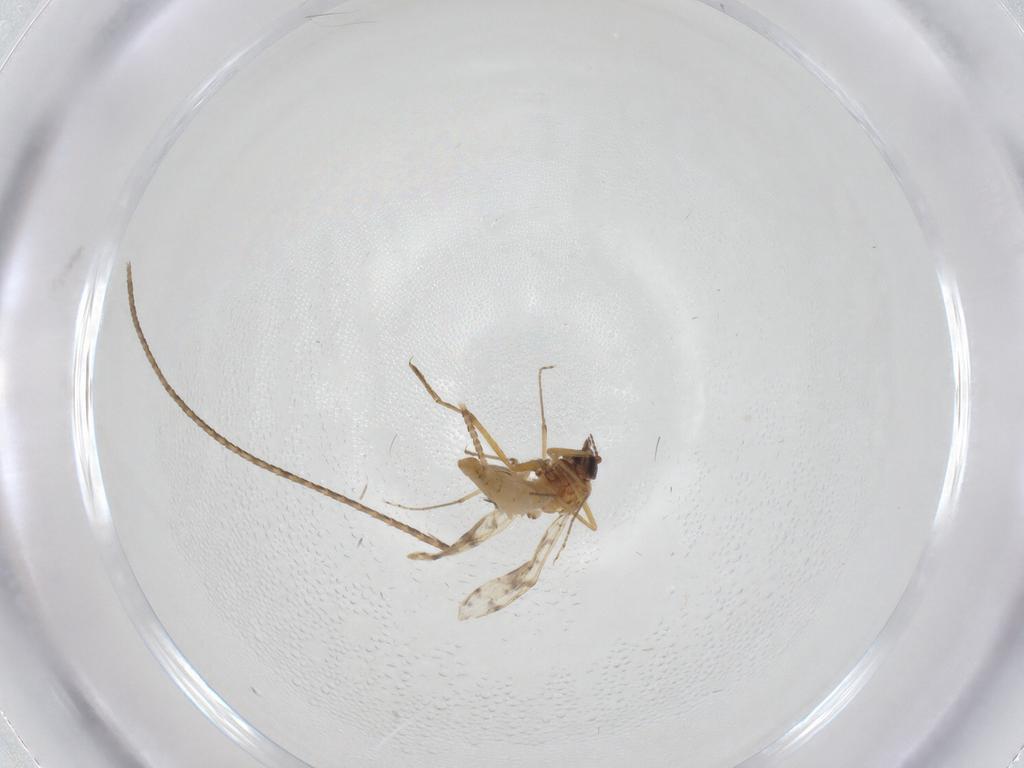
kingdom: Animalia
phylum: Arthropoda
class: Insecta
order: Diptera
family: Ceratopogonidae
